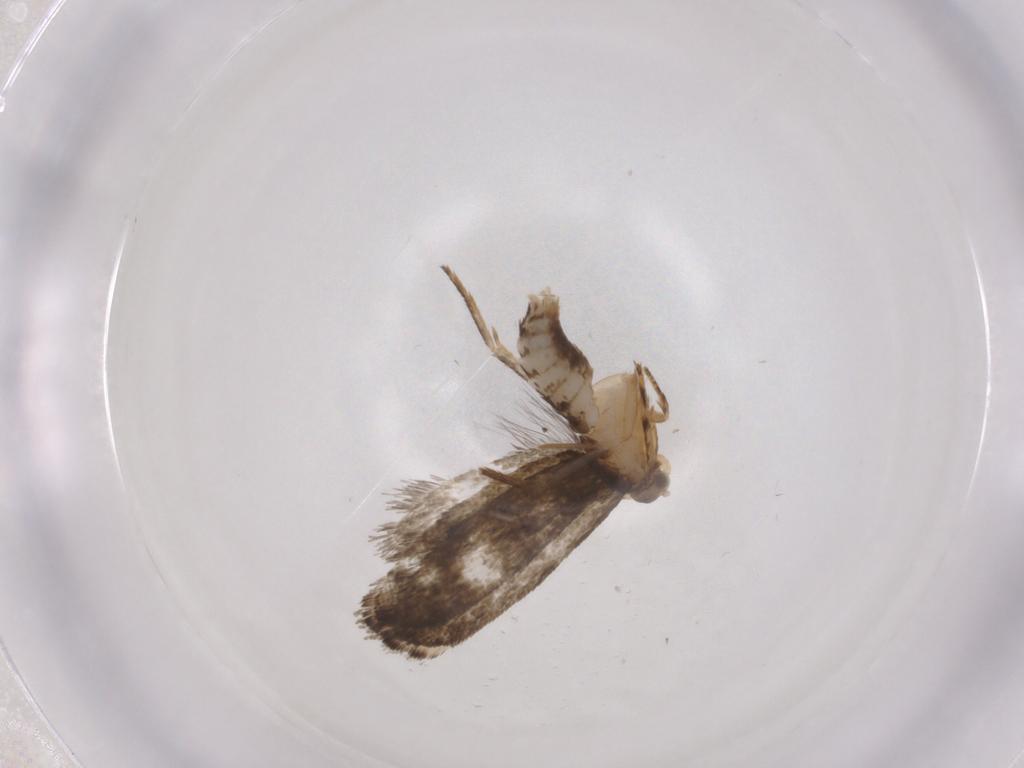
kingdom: Animalia
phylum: Arthropoda
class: Insecta
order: Lepidoptera
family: Tineidae
